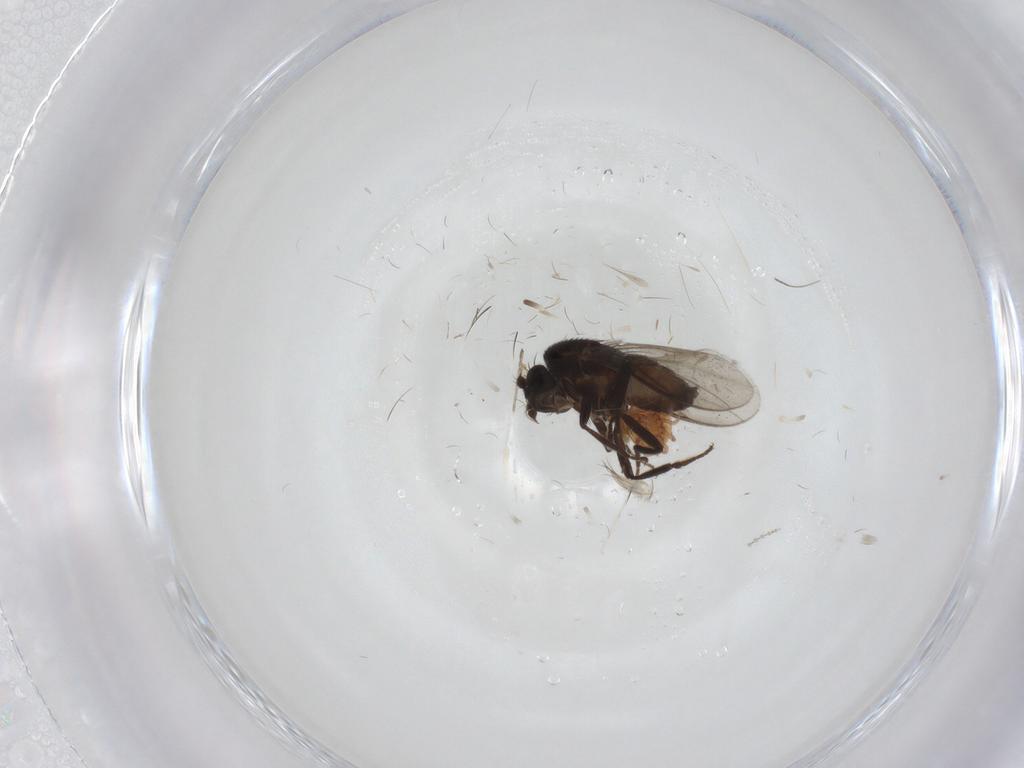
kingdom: Animalia
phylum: Arthropoda
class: Arachnida
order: Mesostigmata
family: Polyaspididae
